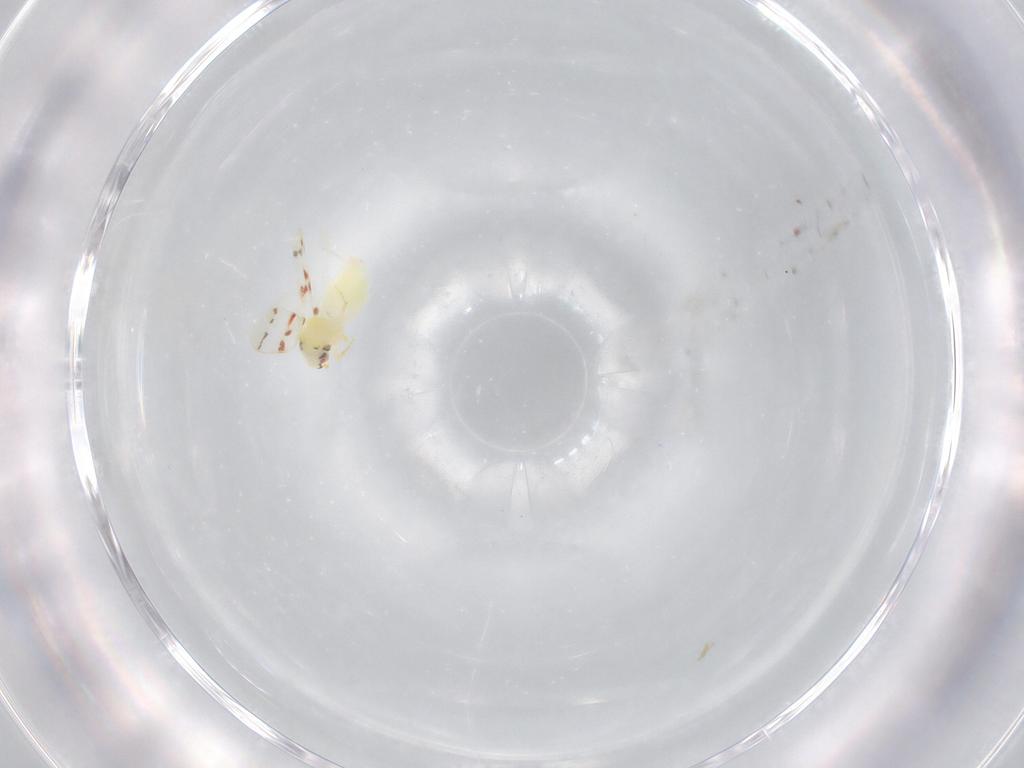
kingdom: Animalia
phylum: Arthropoda
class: Insecta
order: Hemiptera
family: Aleyrodidae
